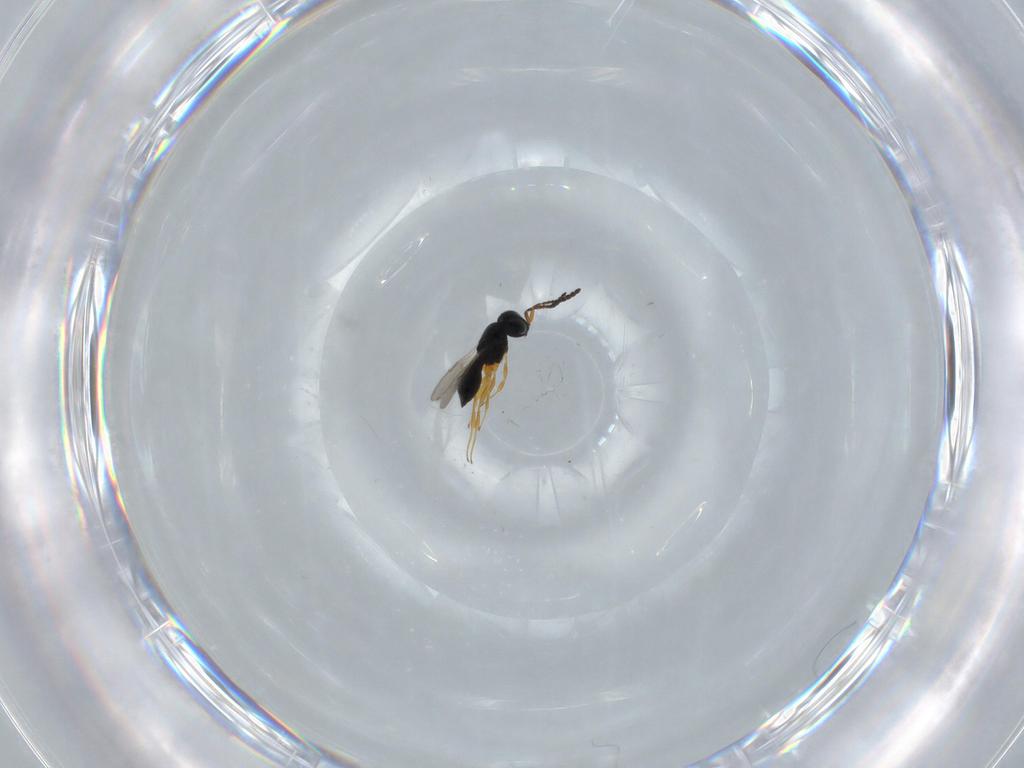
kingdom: Animalia
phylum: Arthropoda
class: Insecta
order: Hymenoptera
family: Scelionidae
